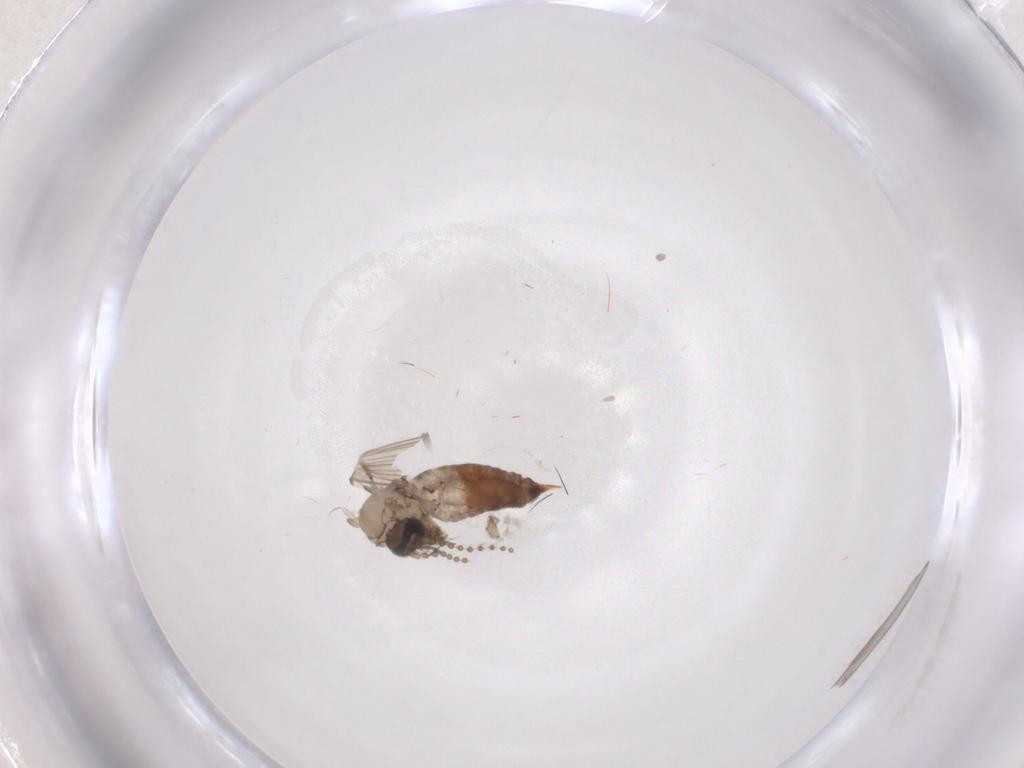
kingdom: Animalia
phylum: Arthropoda
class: Insecta
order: Diptera
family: Psychodidae
